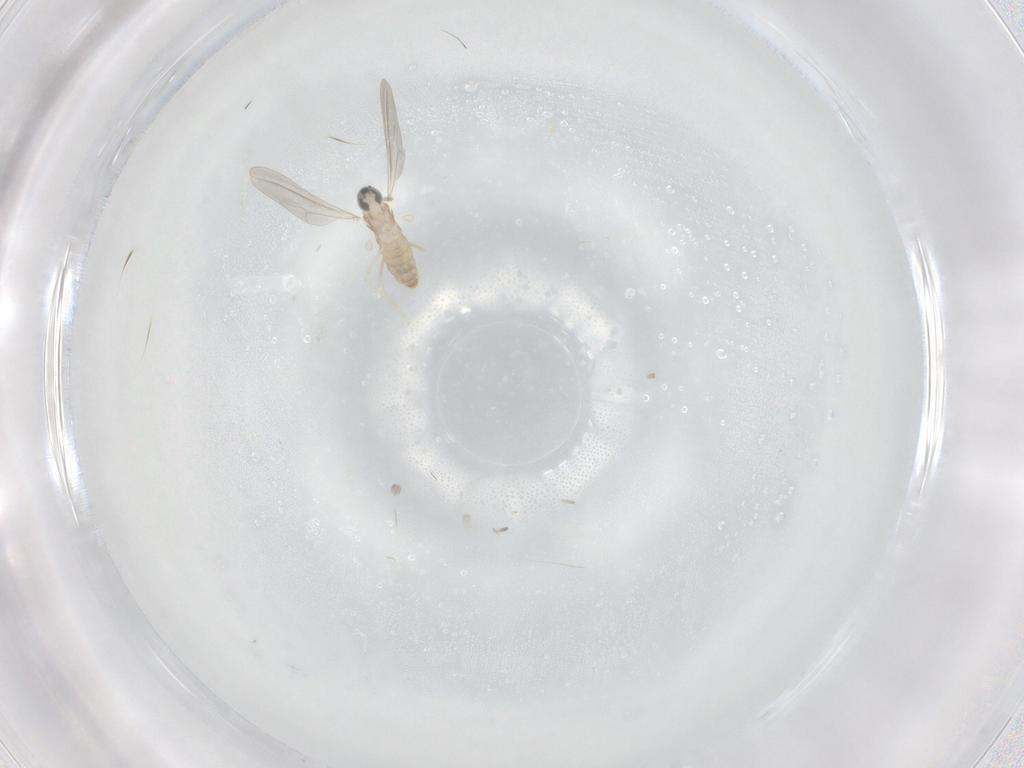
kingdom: Animalia
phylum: Arthropoda
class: Insecta
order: Diptera
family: Cecidomyiidae
